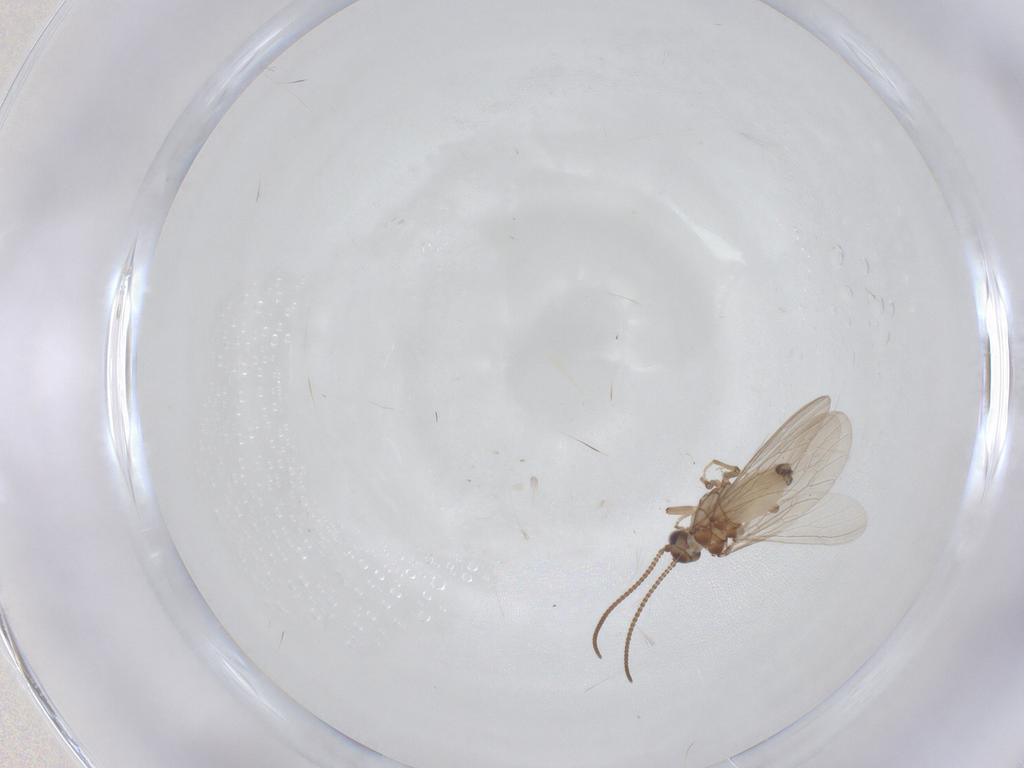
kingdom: Animalia
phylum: Arthropoda
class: Insecta
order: Neuroptera
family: Coniopterygidae
